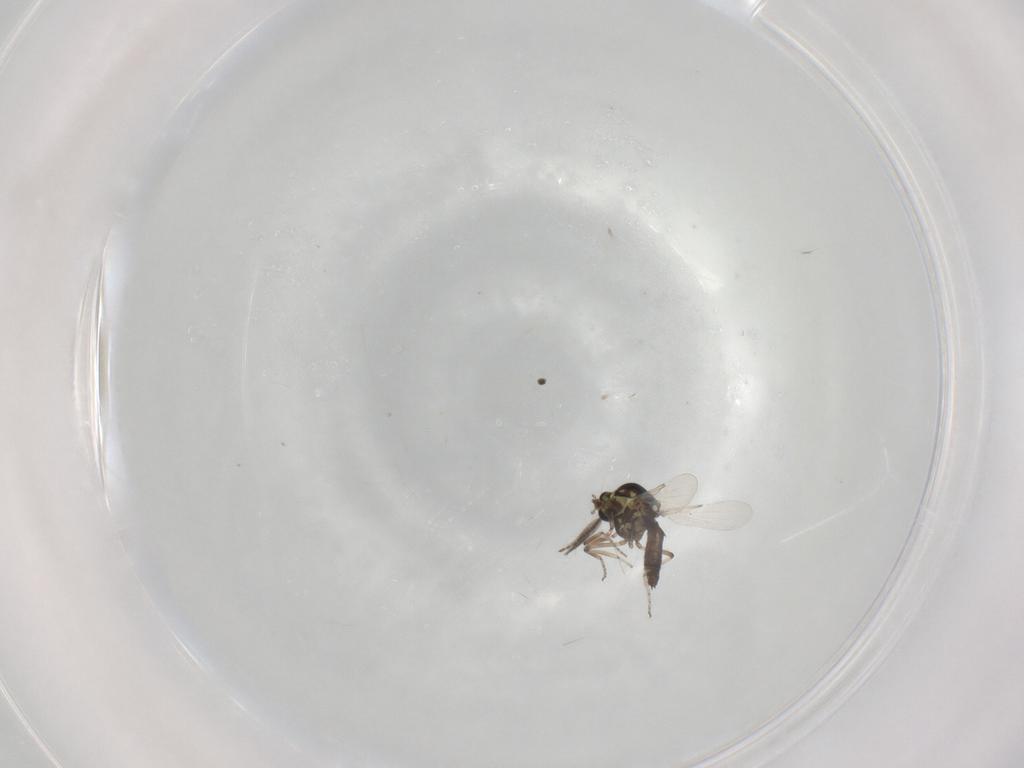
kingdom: Animalia
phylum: Arthropoda
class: Insecta
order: Diptera
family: Ceratopogonidae
